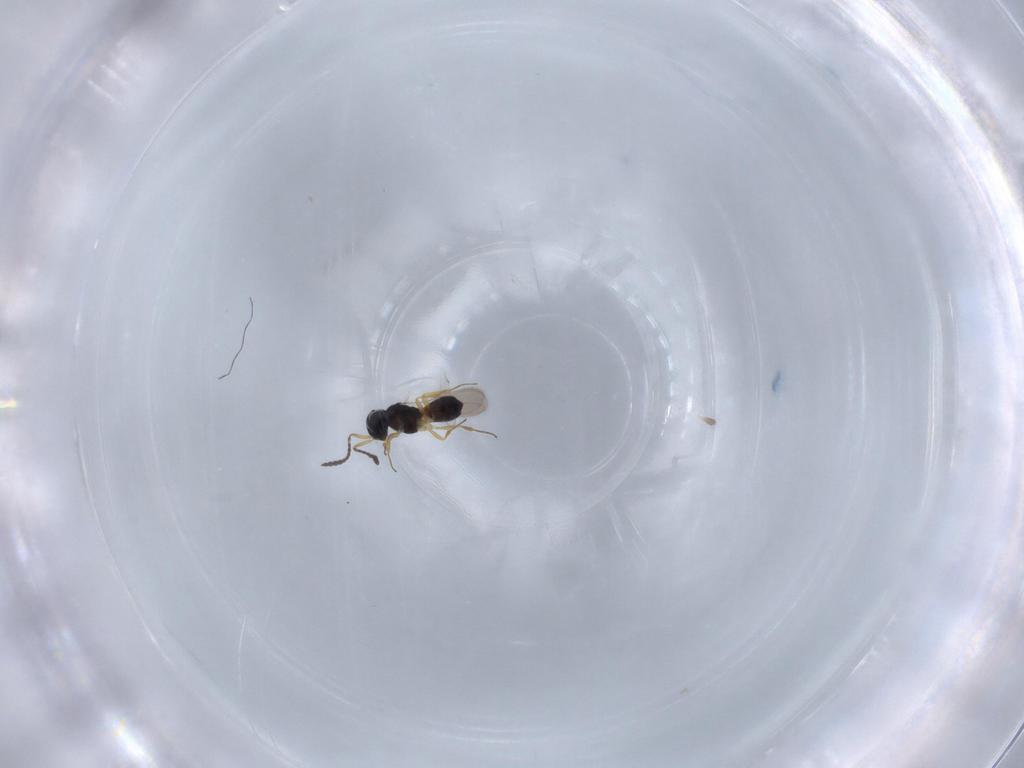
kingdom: Animalia
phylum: Arthropoda
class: Insecta
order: Hymenoptera
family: Scelionidae
